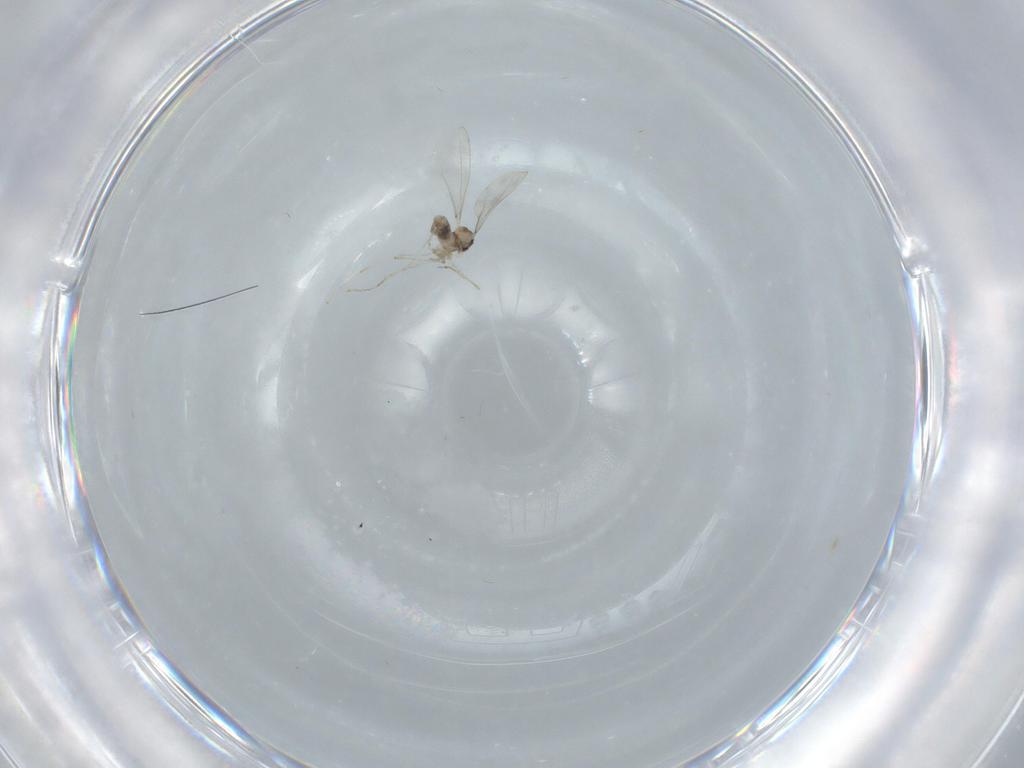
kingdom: Animalia
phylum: Arthropoda
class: Insecta
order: Diptera
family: Cecidomyiidae
